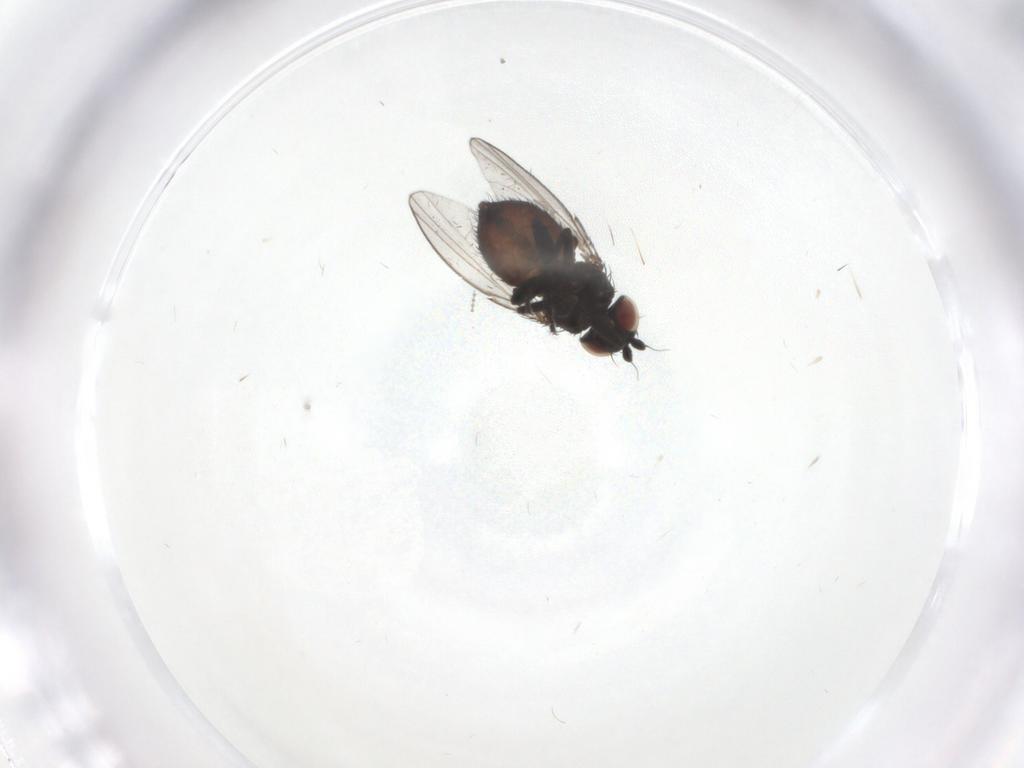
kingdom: Animalia
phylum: Arthropoda
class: Insecta
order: Diptera
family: Milichiidae
